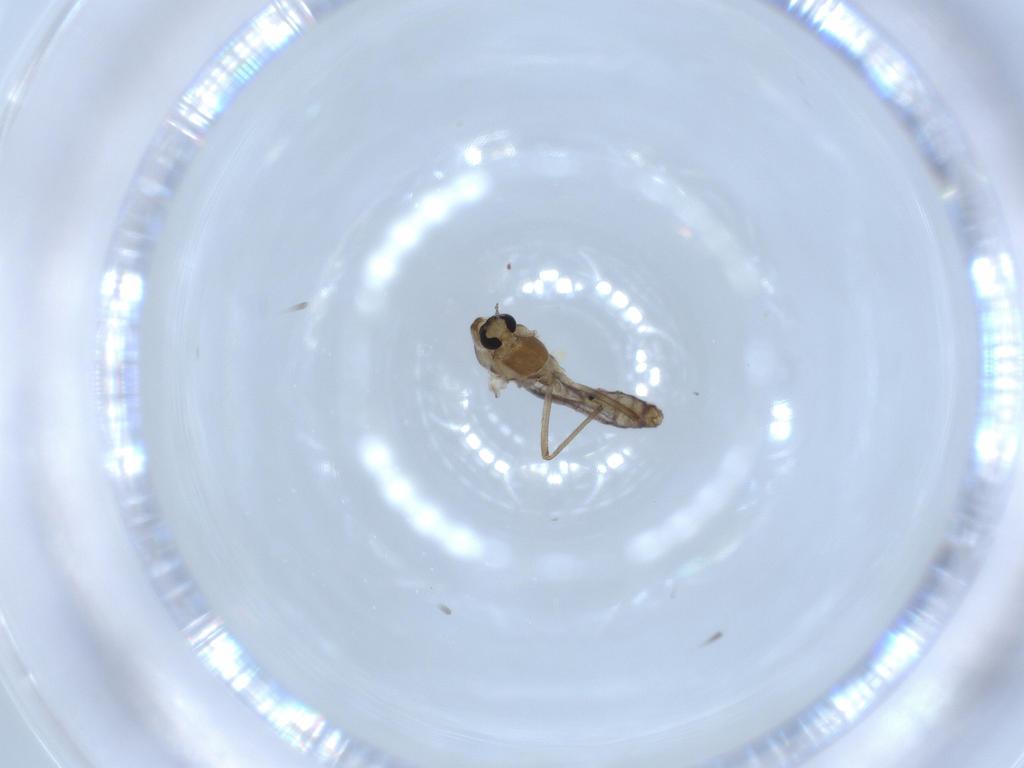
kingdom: Animalia
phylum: Arthropoda
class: Insecta
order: Diptera
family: Chironomidae
